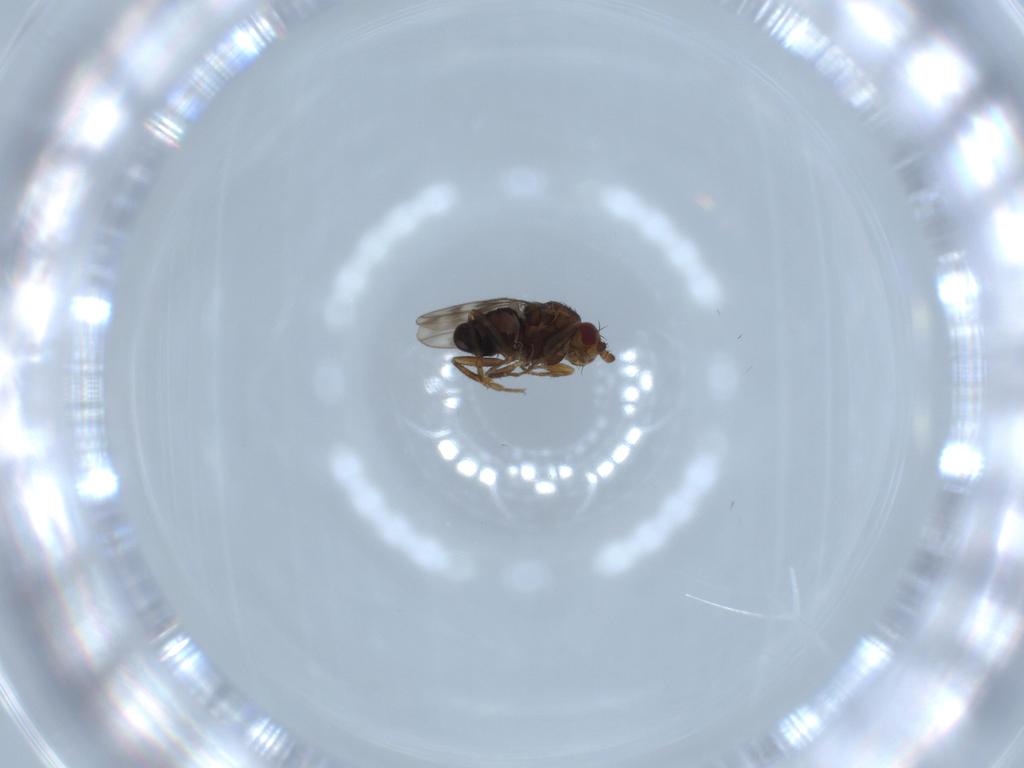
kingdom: Animalia
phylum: Arthropoda
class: Insecta
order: Diptera
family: Sphaeroceridae
